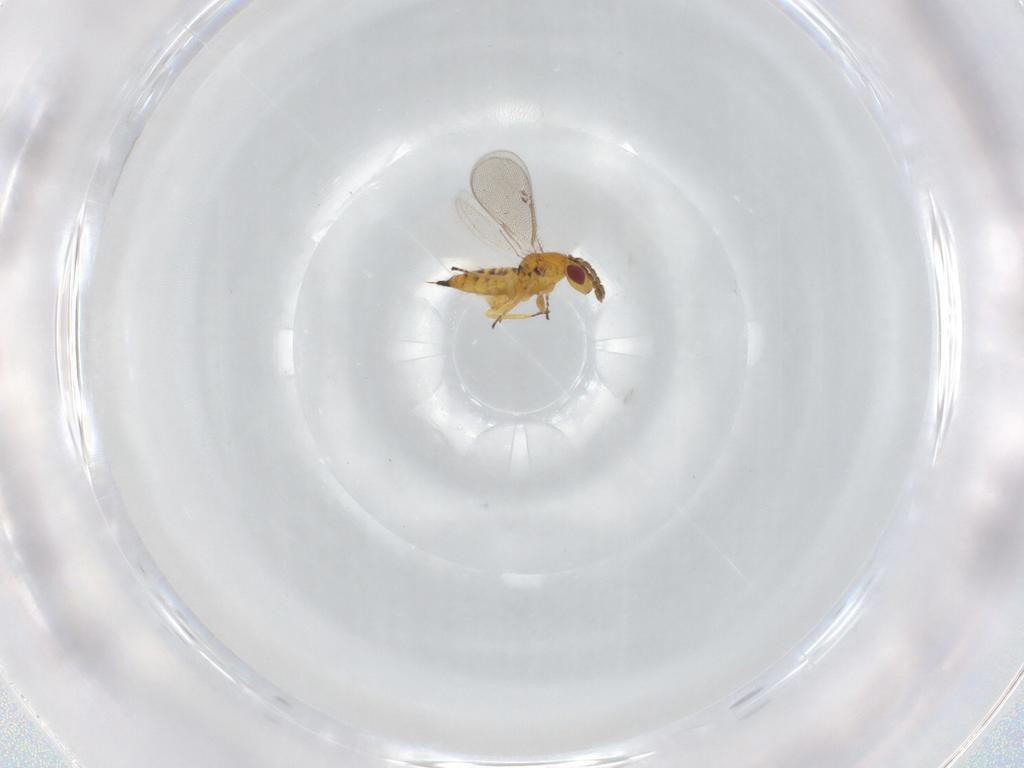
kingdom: Animalia
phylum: Arthropoda
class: Insecta
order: Hymenoptera
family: Eulophidae
